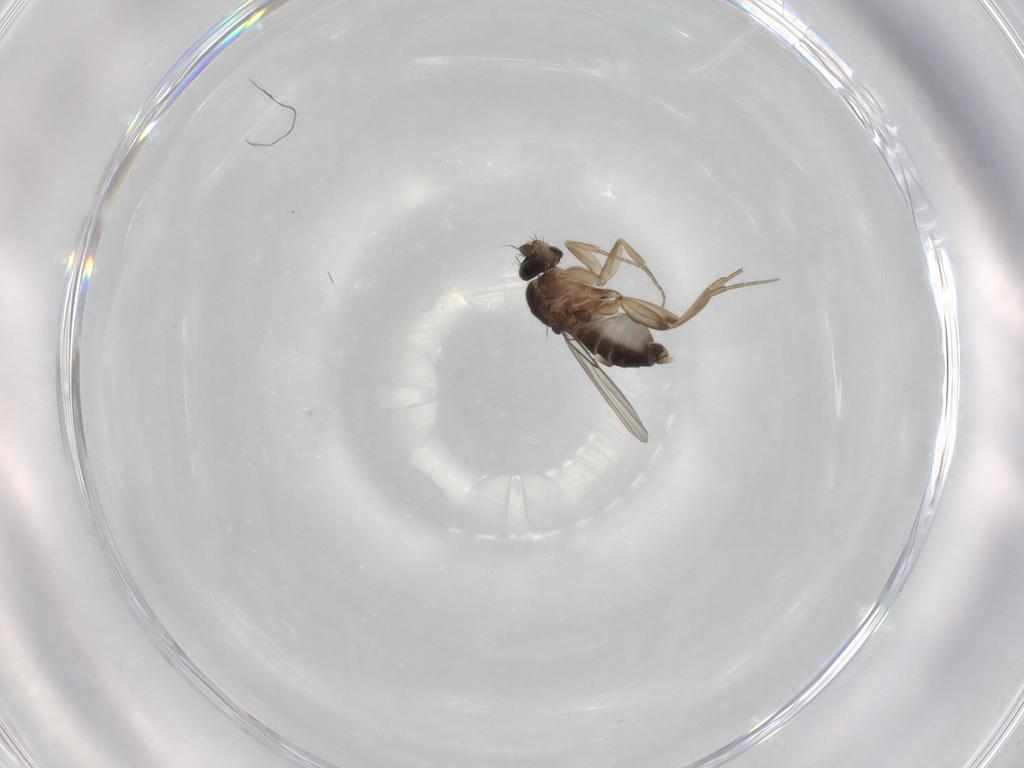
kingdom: Animalia
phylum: Arthropoda
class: Insecta
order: Diptera
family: Phoridae
